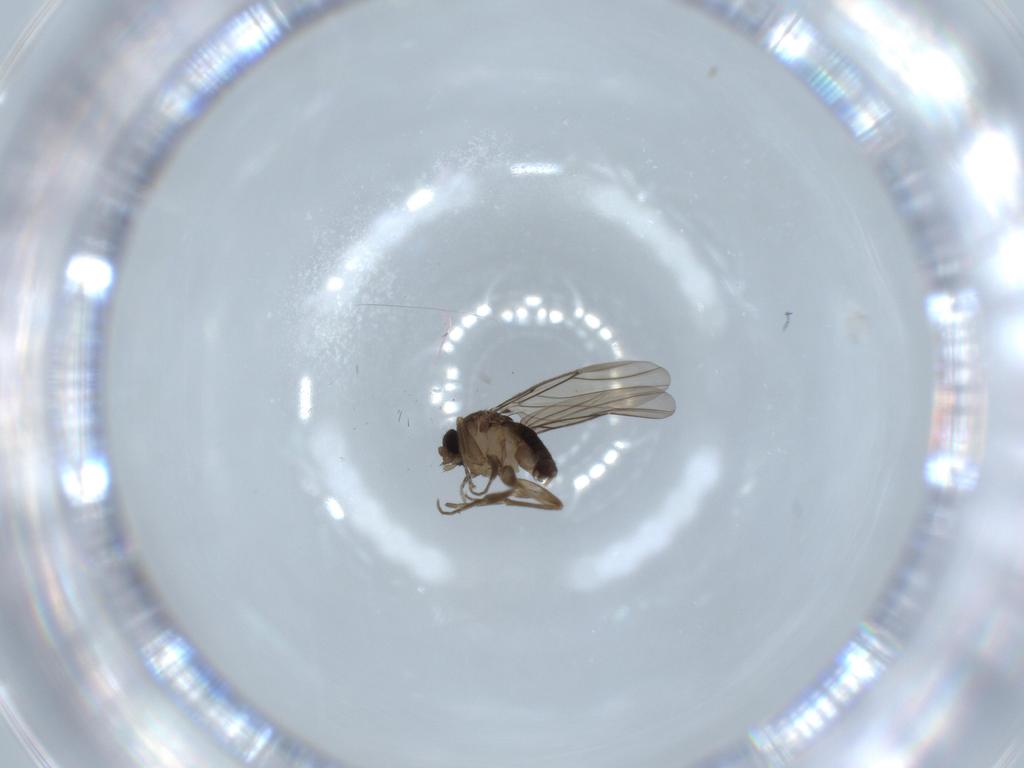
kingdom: Animalia
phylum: Arthropoda
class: Insecta
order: Diptera
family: Phoridae
